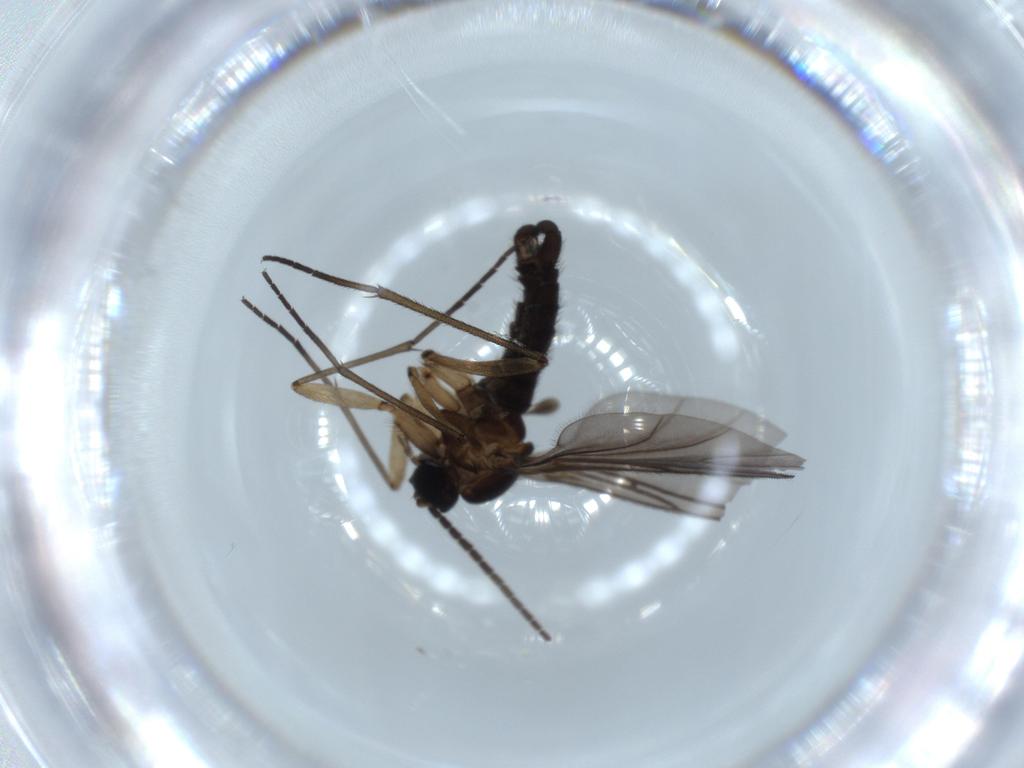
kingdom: Animalia
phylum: Arthropoda
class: Insecta
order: Diptera
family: Sciaridae
